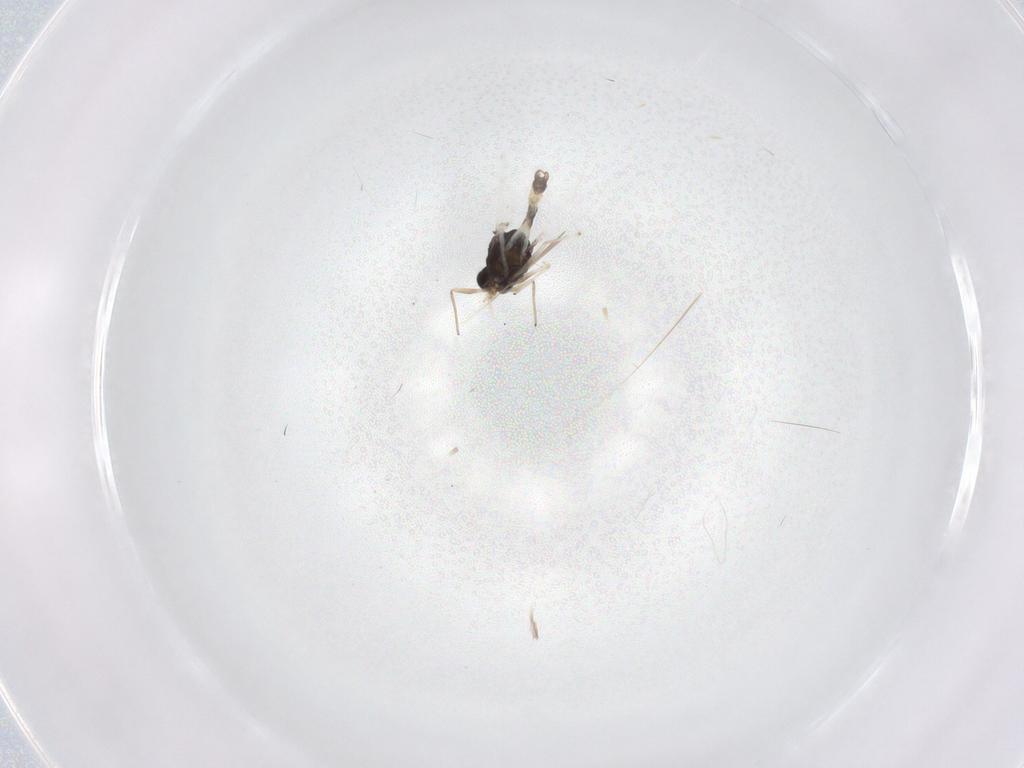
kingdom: Animalia
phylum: Arthropoda
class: Insecta
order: Diptera
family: Chironomidae
